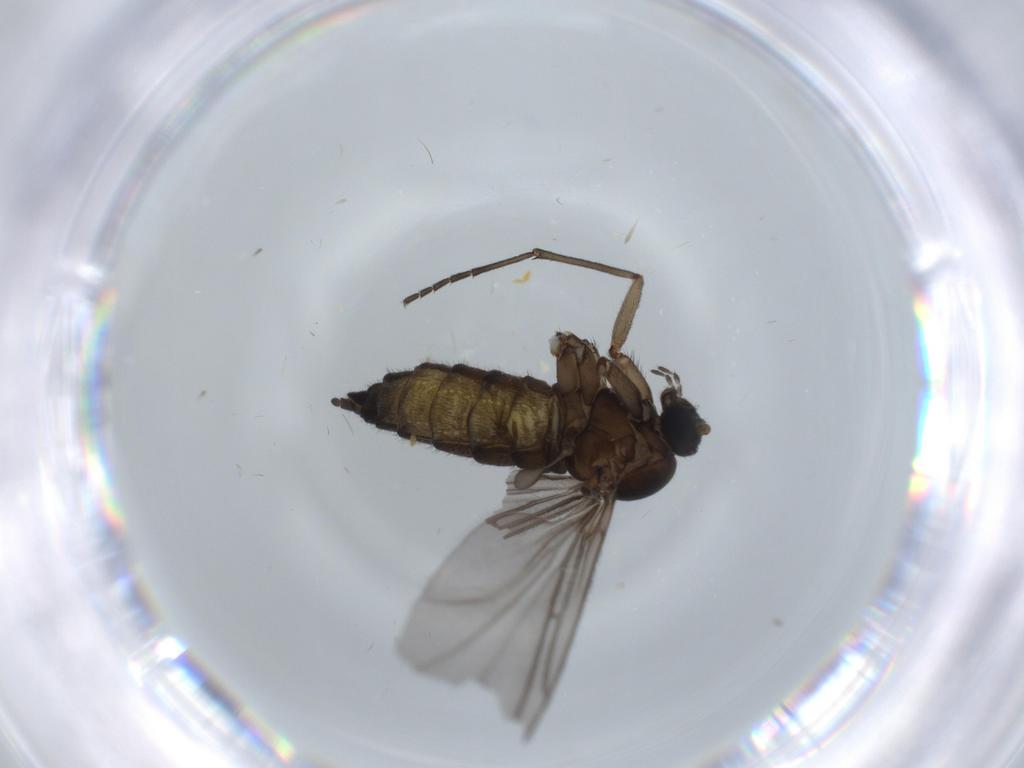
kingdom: Animalia
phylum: Arthropoda
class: Insecta
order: Diptera
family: Sciaridae
